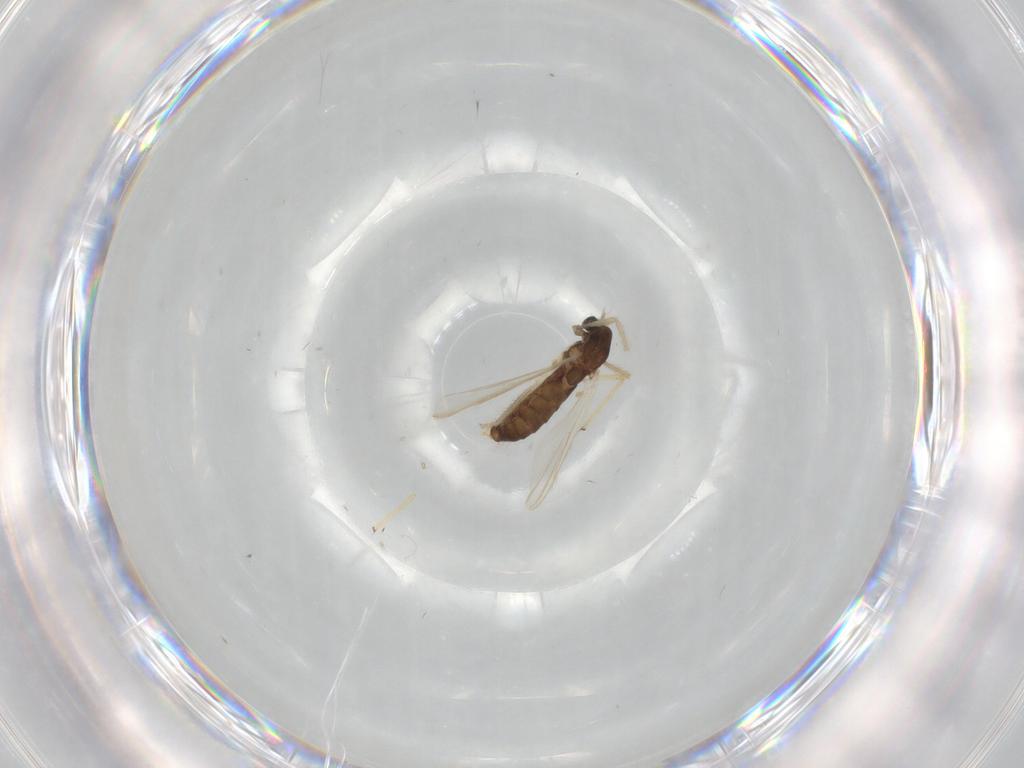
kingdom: Animalia
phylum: Arthropoda
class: Insecta
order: Diptera
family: Chironomidae
